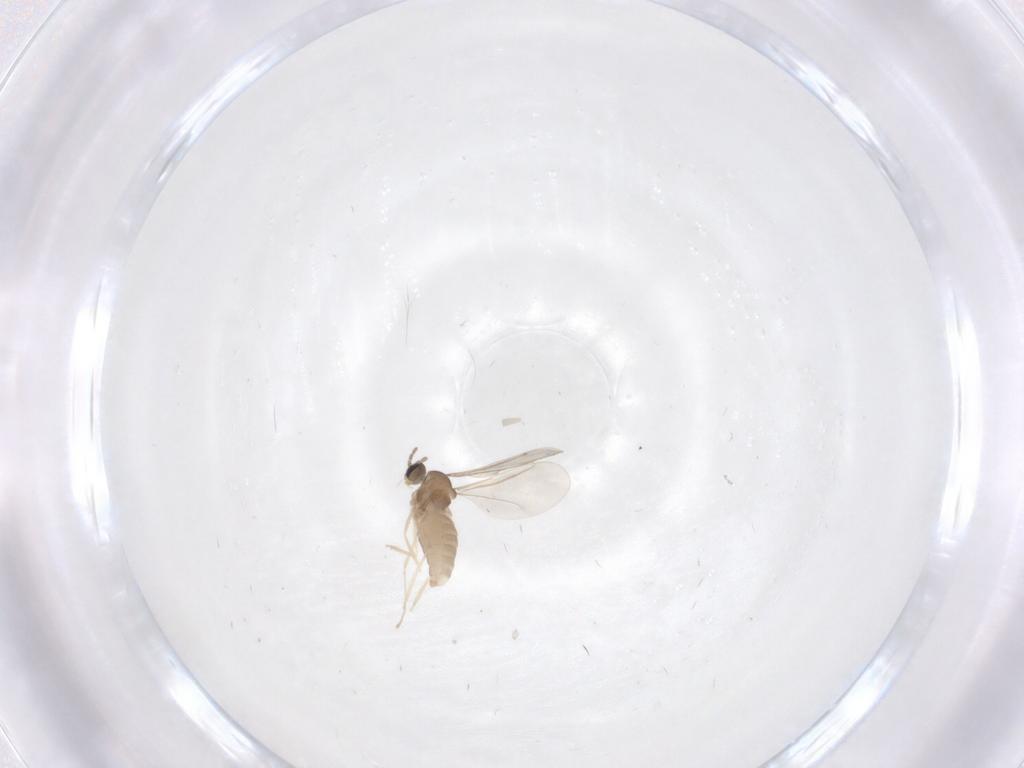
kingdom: Animalia
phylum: Arthropoda
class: Insecta
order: Diptera
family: Cecidomyiidae
